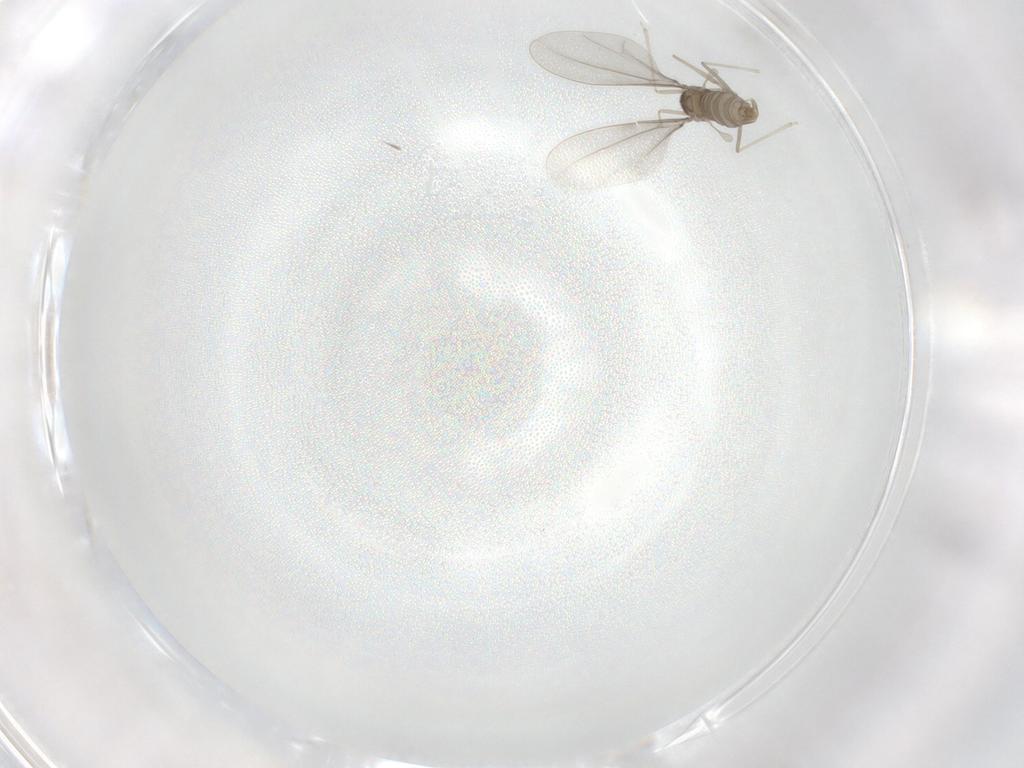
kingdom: Animalia
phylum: Arthropoda
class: Insecta
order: Diptera
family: Cecidomyiidae
